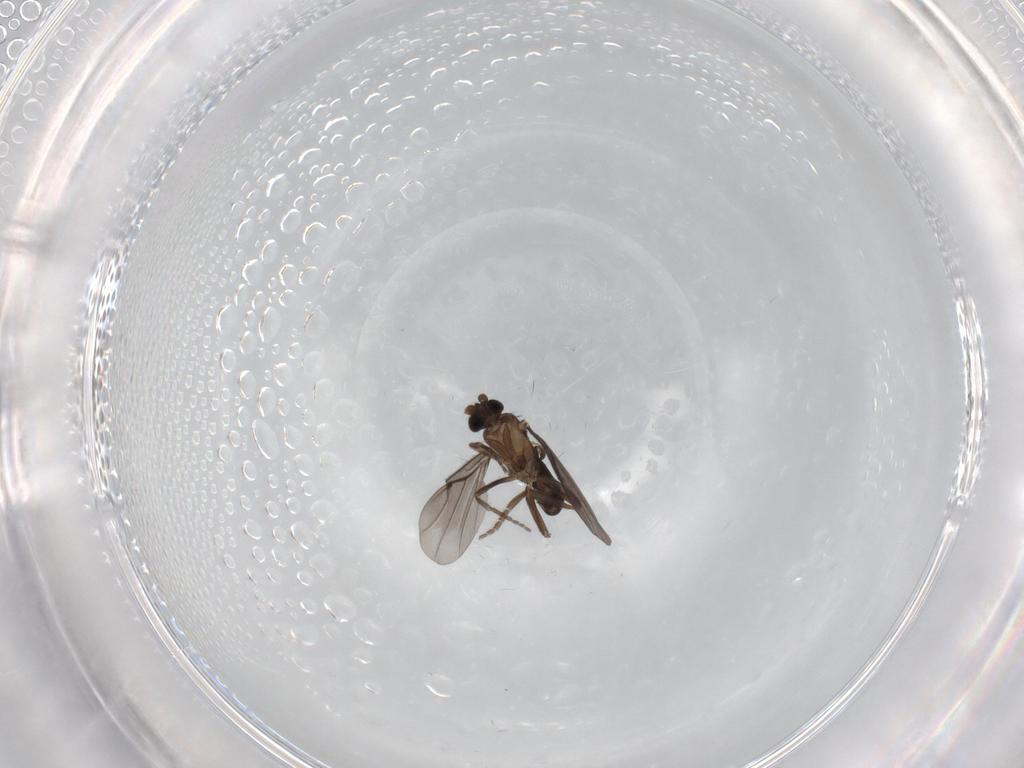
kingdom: Animalia
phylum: Arthropoda
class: Insecta
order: Diptera
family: Phoridae
